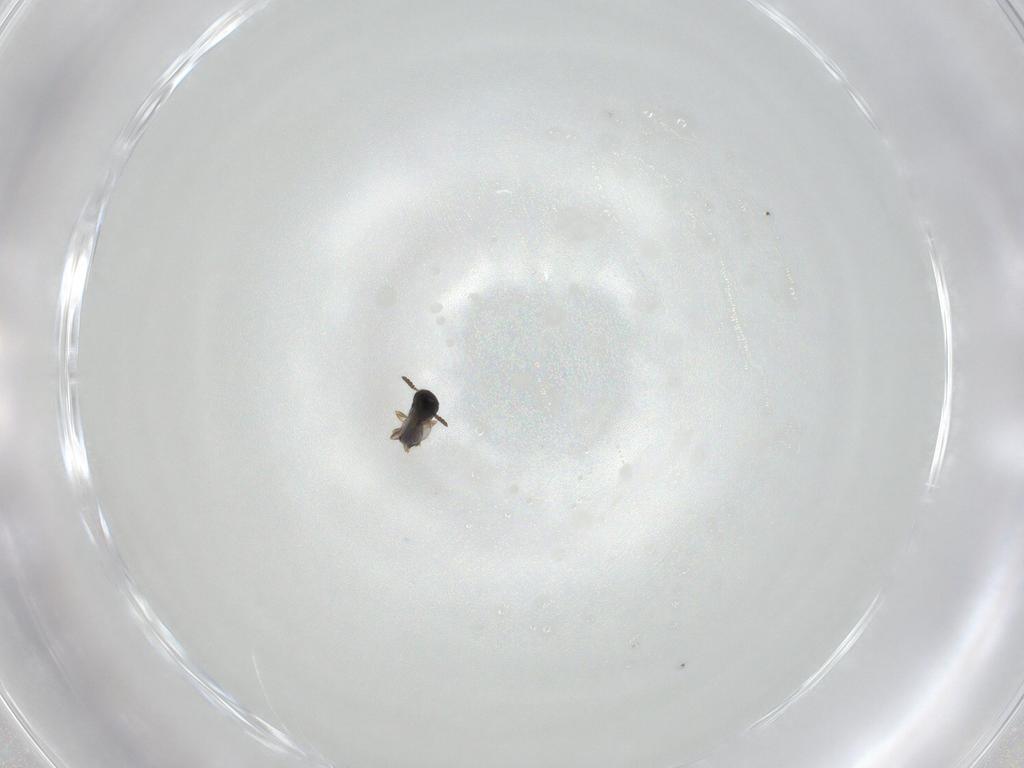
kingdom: Animalia
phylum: Arthropoda
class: Insecta
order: Hymenoptera
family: Scelionidae
